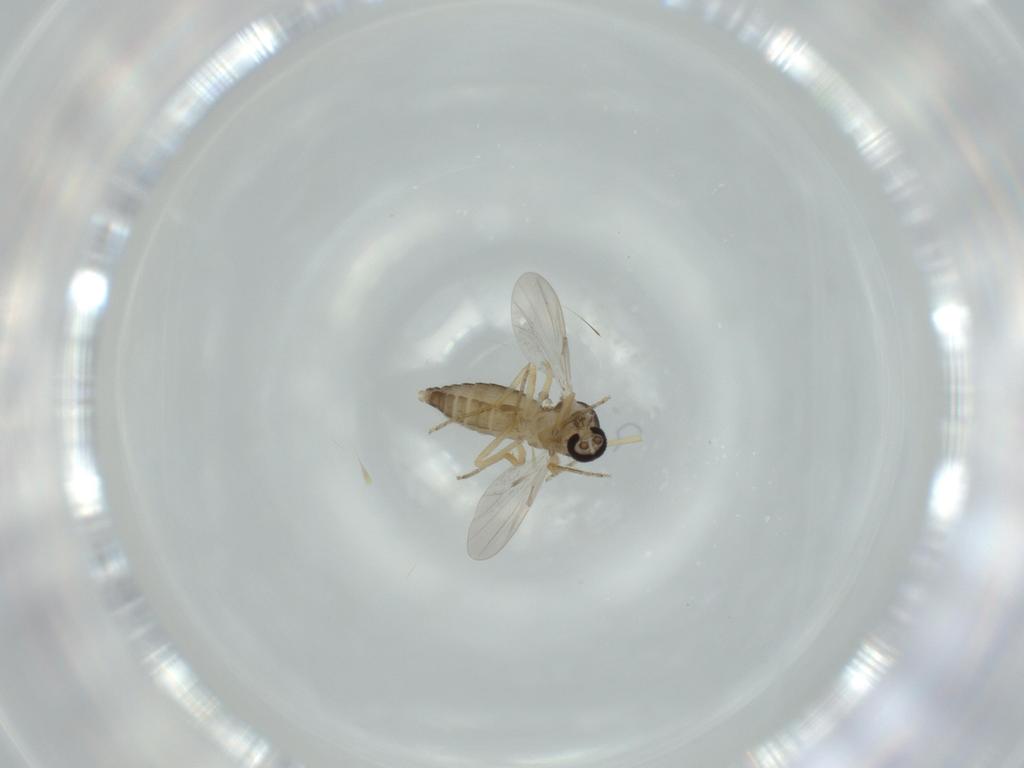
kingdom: Animalia
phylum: Arthropoda
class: Insecta
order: Diptera
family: Ceratopogonidae
